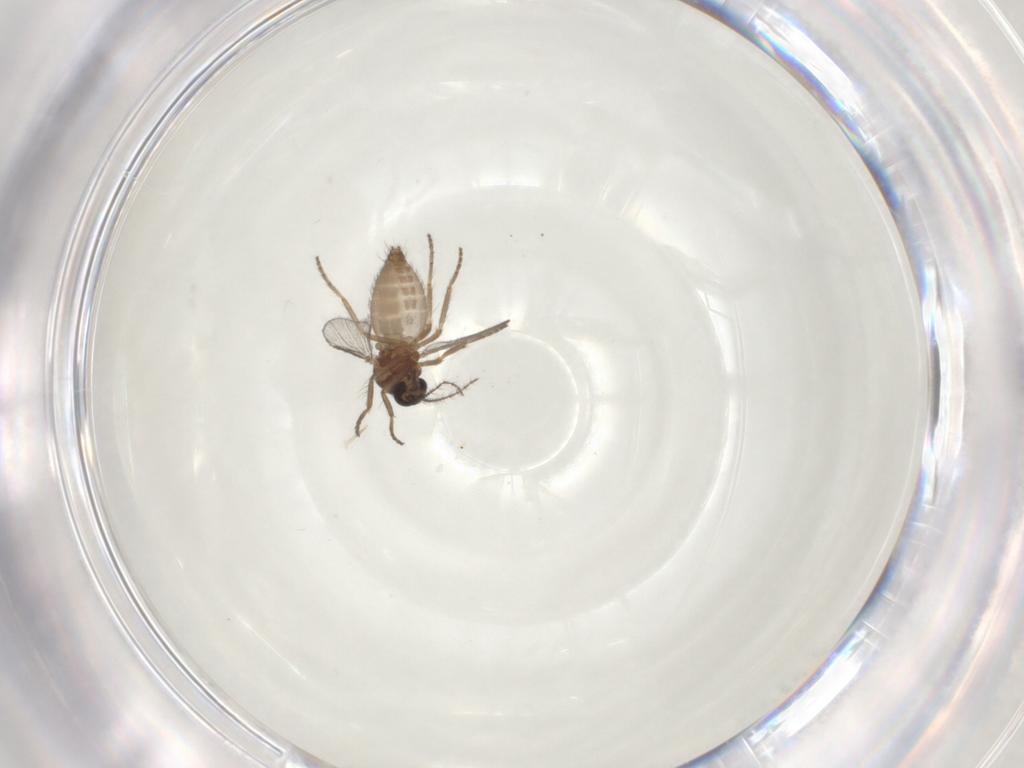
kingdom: Animalia
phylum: Arthropoda
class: Insecta
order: Diptera
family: Ceratopogonidae
